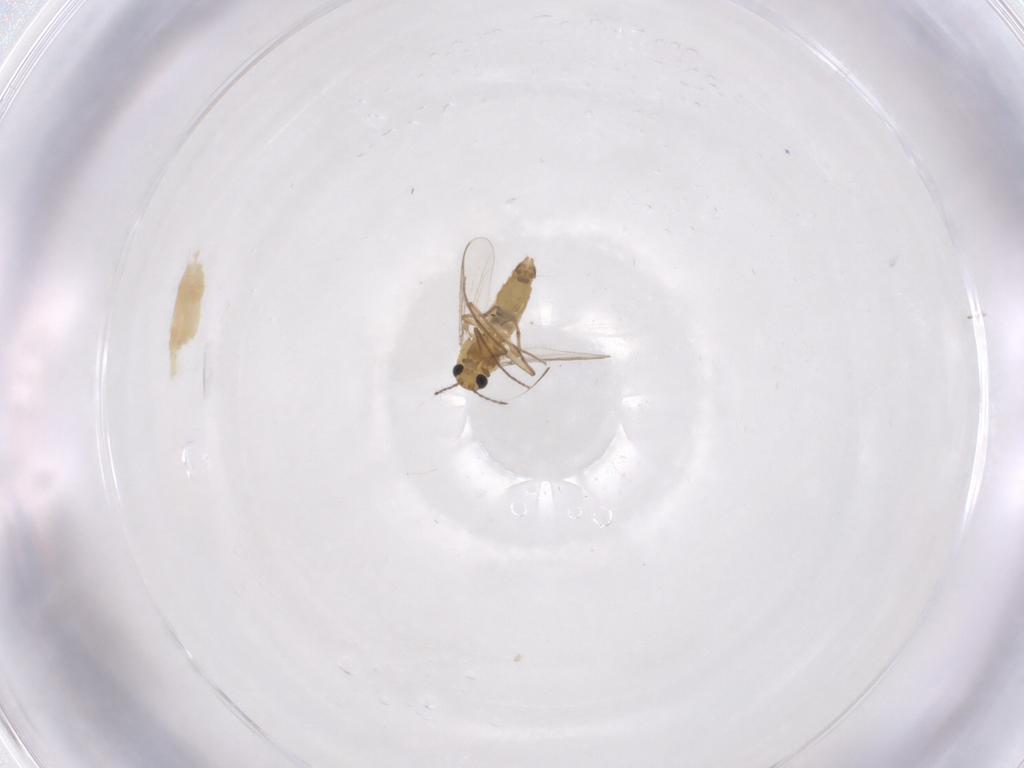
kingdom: Animalia
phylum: Arthropoda
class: Insecta
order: Diptera
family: Chironomidae
